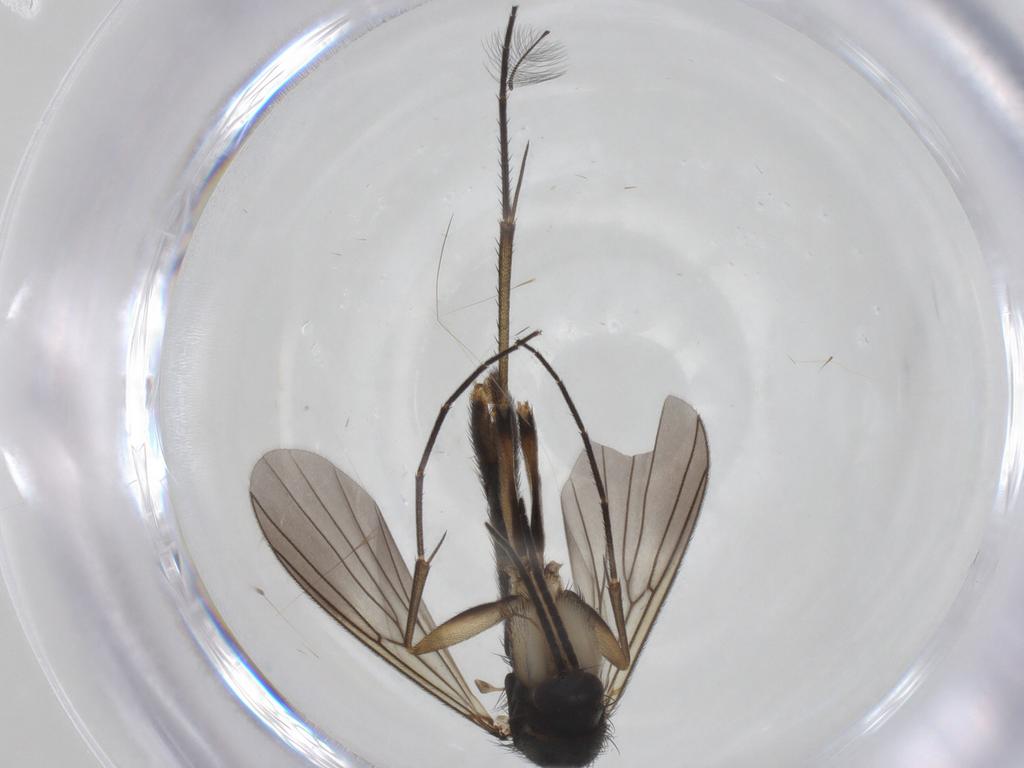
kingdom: Animalia
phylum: Arthropoda
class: Insecta
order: Diptera
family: Mycetophilidae
